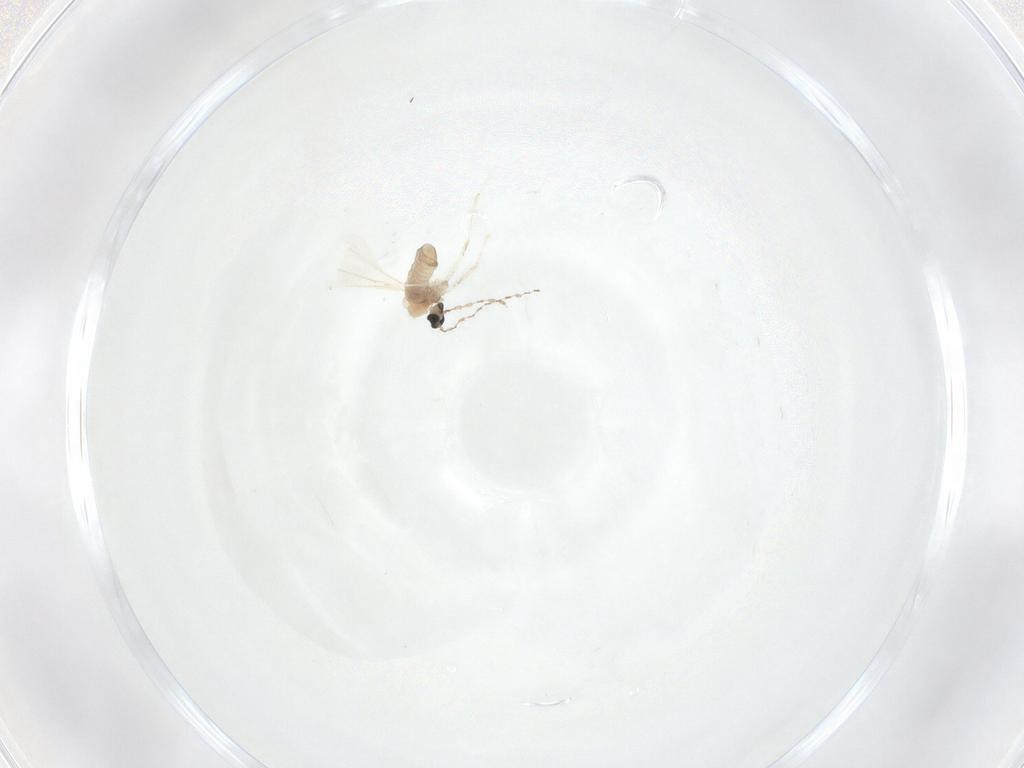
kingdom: Animalia
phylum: Arthropoda
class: Insecta
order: Diptera
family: Cecidomyiidae
